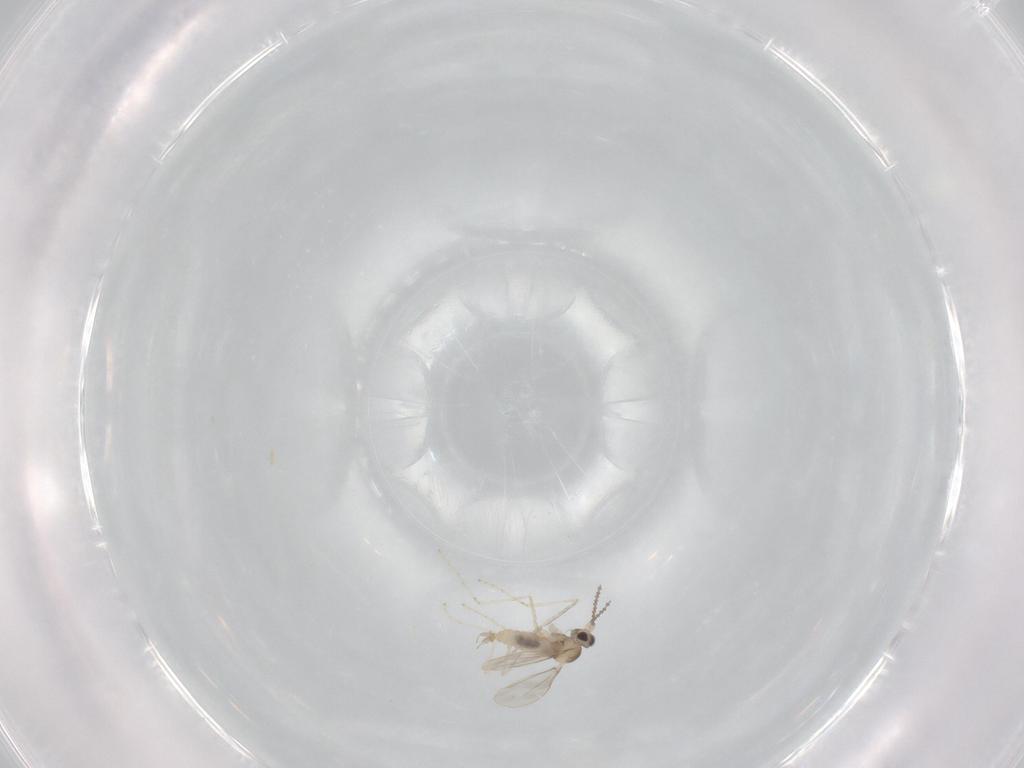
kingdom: Animalia
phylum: Arthropoda
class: Insecta
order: Diptera
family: Cecidomyiidae
